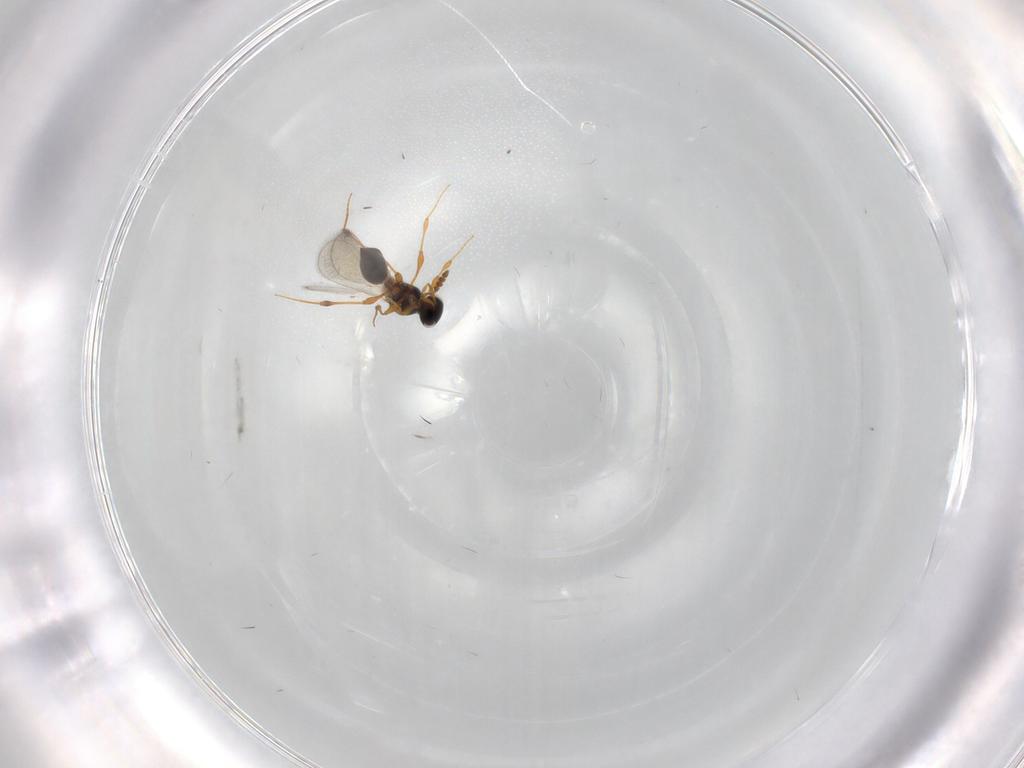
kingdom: Animalia
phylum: Arthropoda
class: Insecta
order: Hymenoptera
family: Platygastridae
